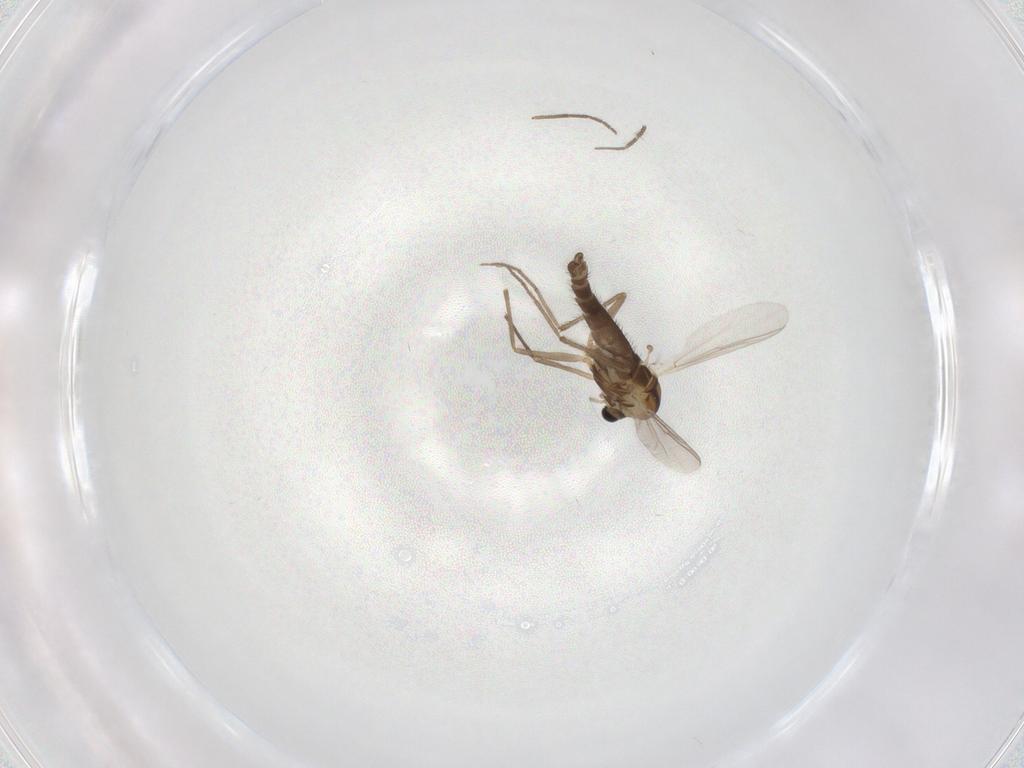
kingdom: Animalia
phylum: Arthropoda
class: Insecta
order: Diptera
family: Chironomidae
